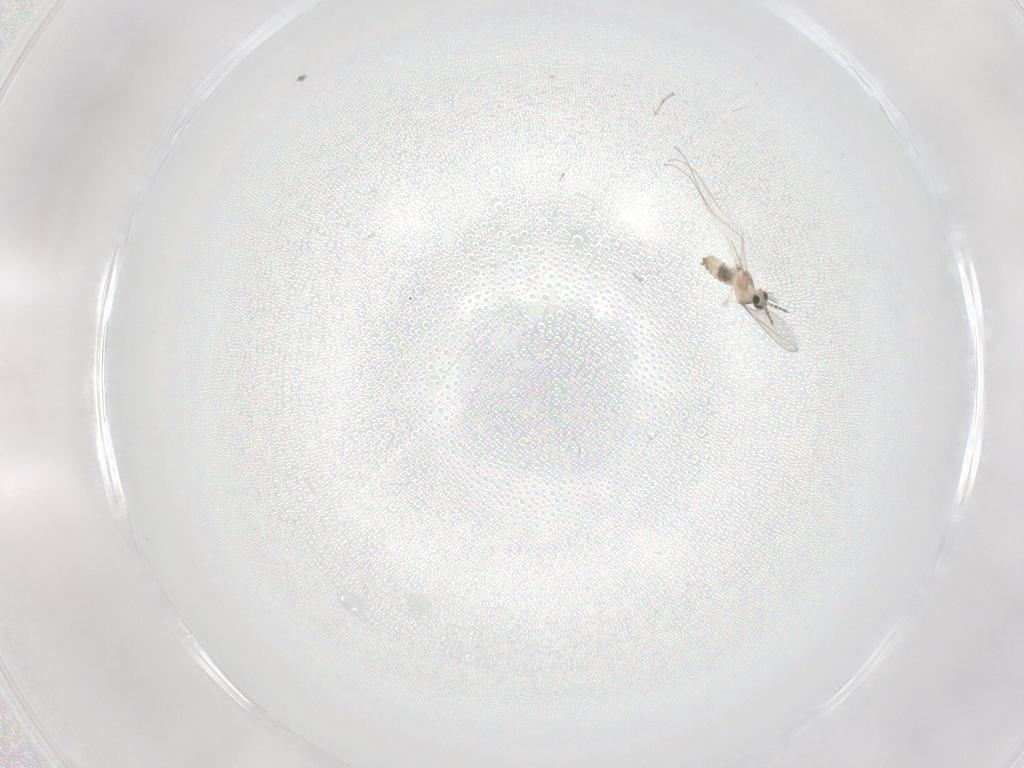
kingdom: Animalia
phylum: Arthropoda
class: Insecta
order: Diptera
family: Cecidomyiidae
